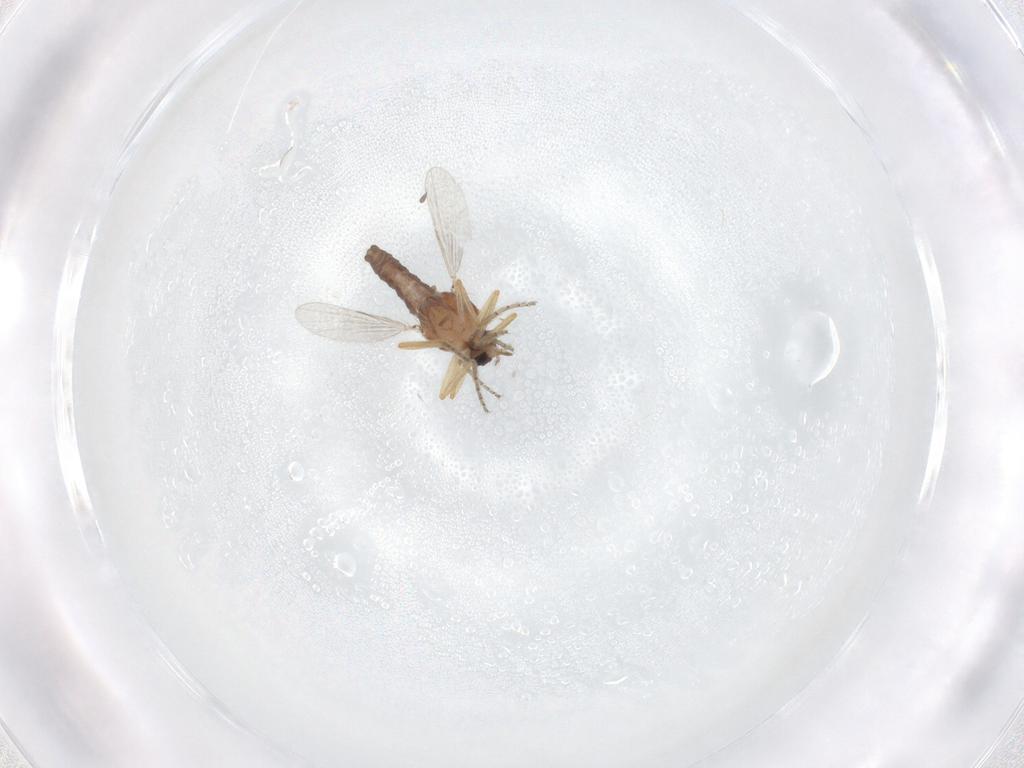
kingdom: Animalia
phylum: Arthropoda
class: Insecta
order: Diptera
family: Ceratopogonidae
